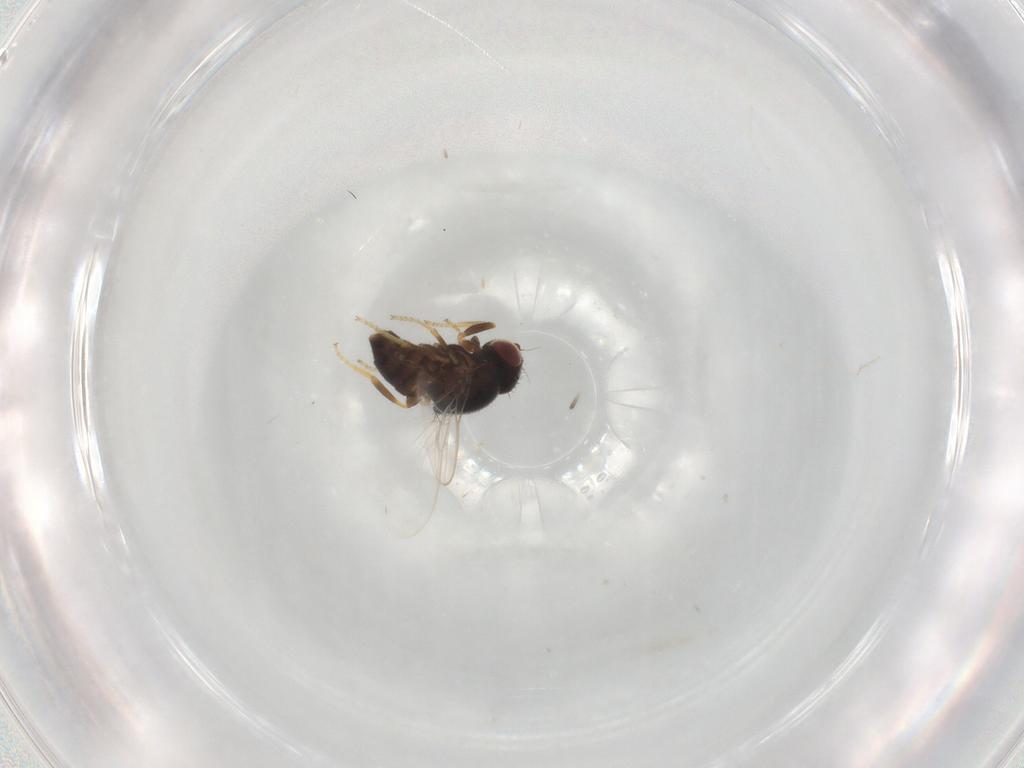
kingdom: Animalia
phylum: Arthropoda
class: Insecta
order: Diptera
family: Chloropidae
